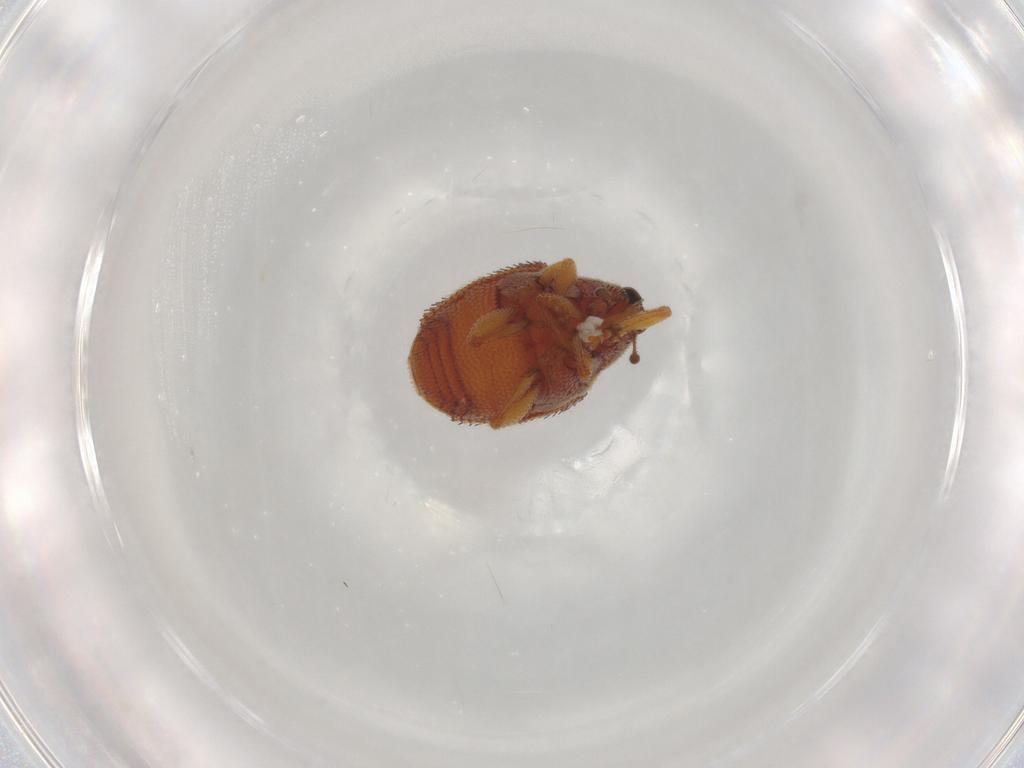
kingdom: Animalia
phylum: Arthropoda
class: Insecta
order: Coleoptera
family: Curculionidae
